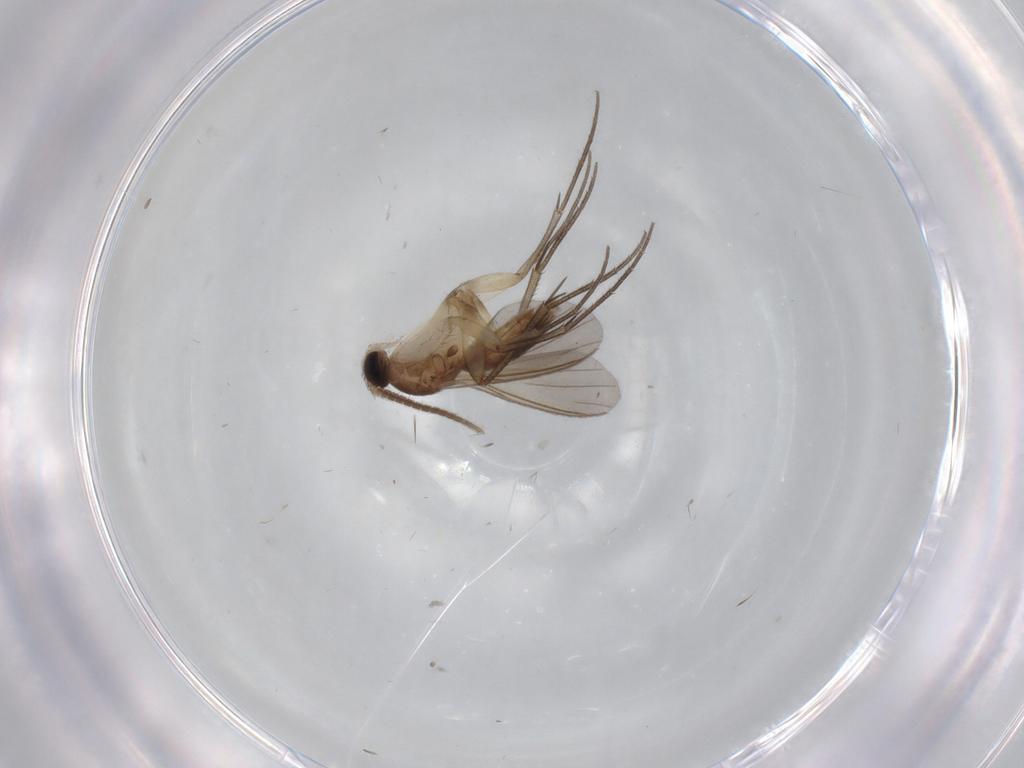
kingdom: Animalia
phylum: Arthropoda
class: Insecta
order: Diptera
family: Mycetophilidae
